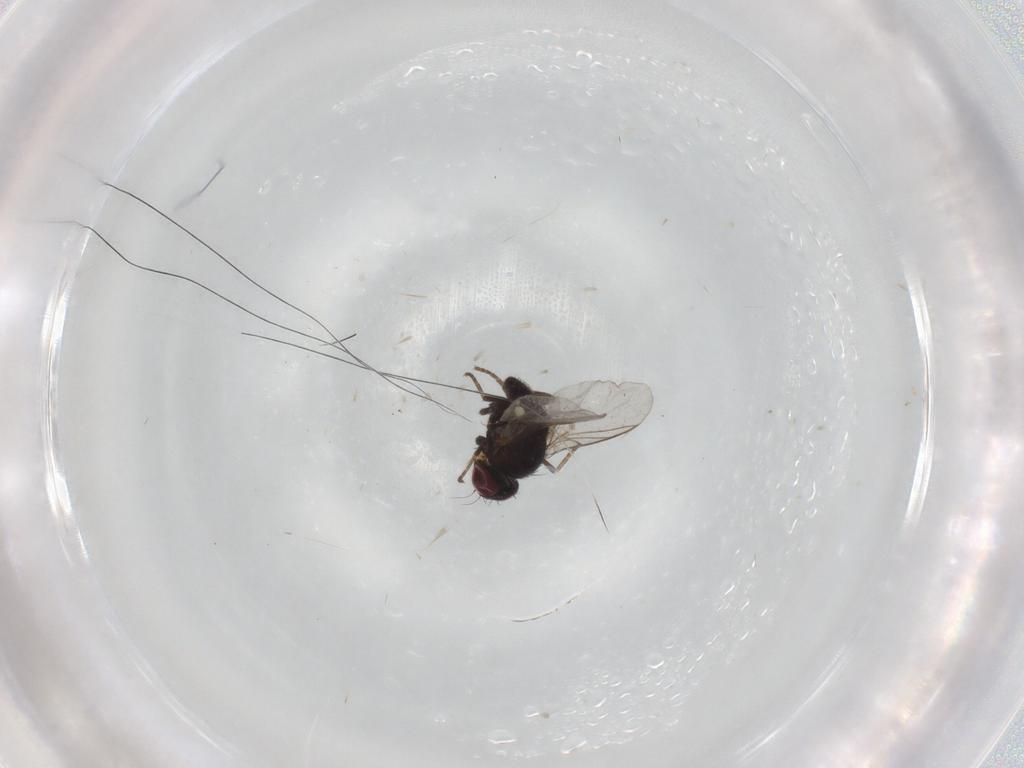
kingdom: Animalia
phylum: Arthropoda
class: Insecta
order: Diptera
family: Agromyzidae
